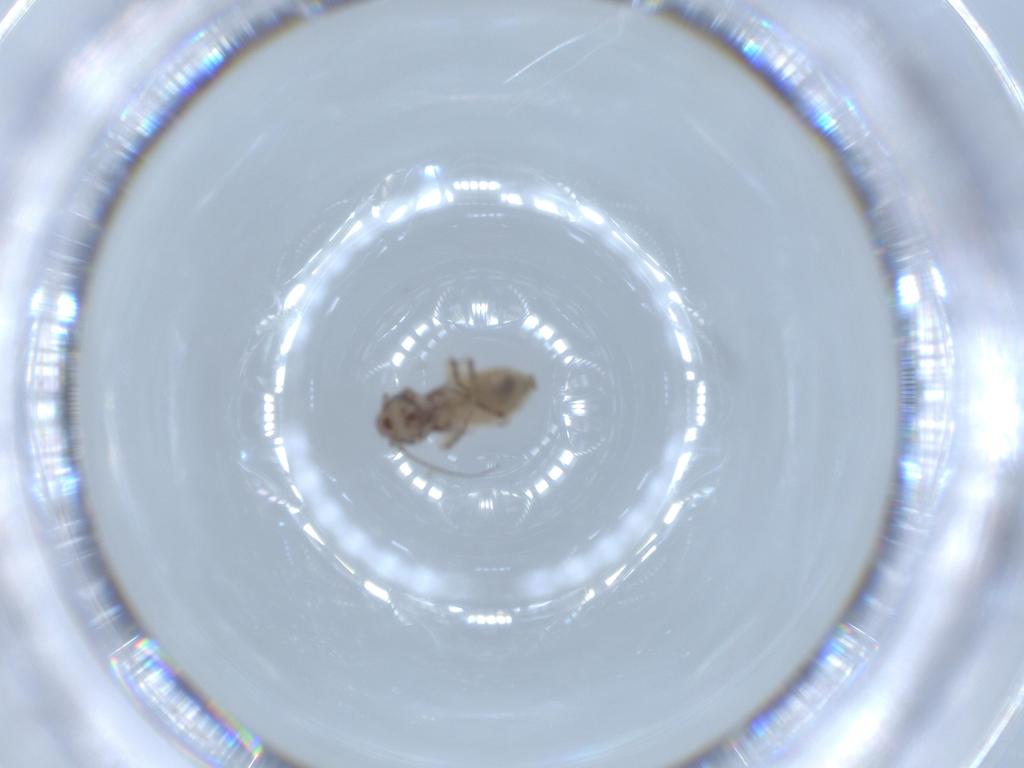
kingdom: Animalia
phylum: Arthropoda
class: Insecta
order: Psocodea
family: Lepidopsocidae
